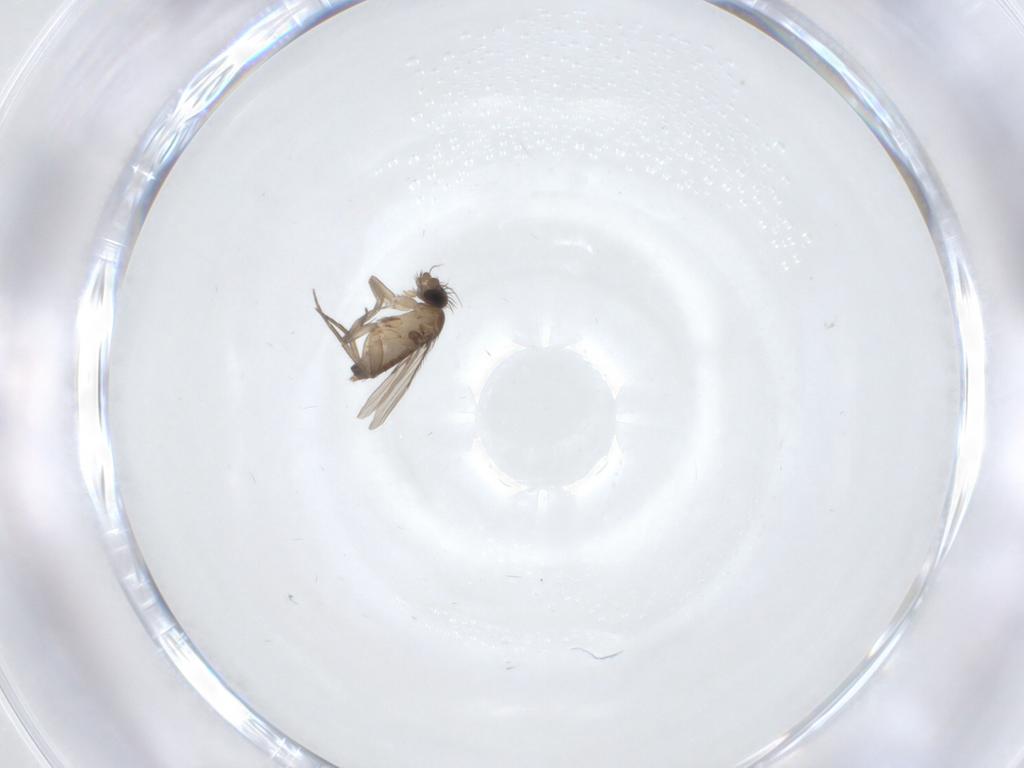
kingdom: Animalia
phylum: Arthropoda
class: Insecta
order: Diptera
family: Phoridae
